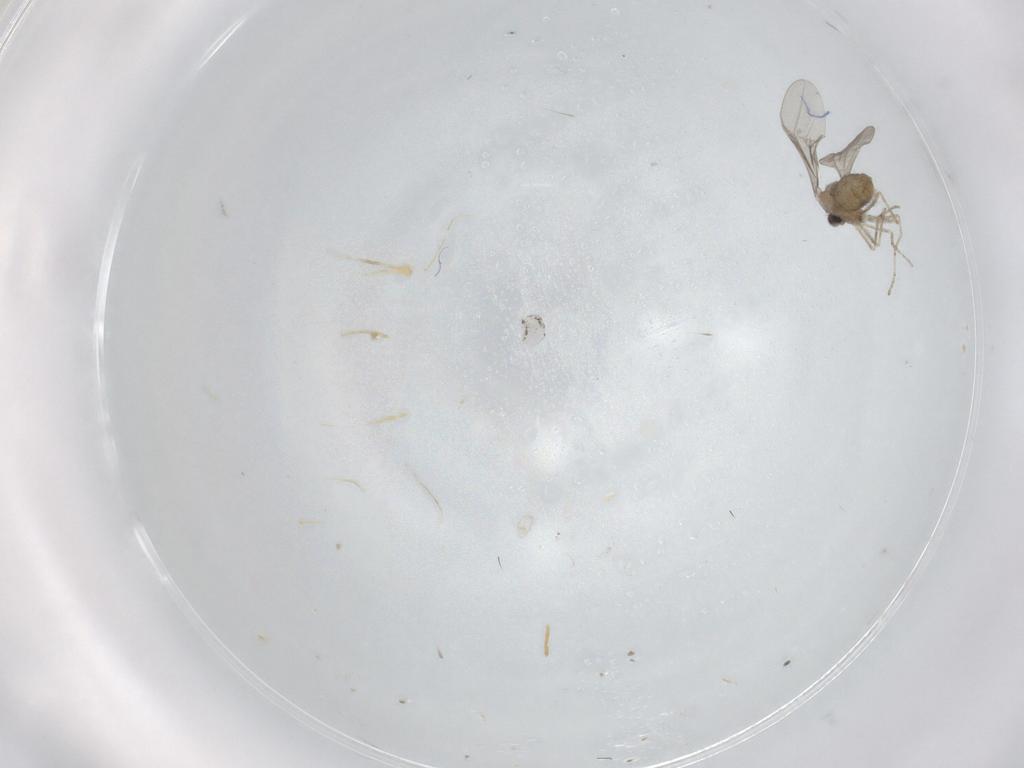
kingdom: Animalia
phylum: Arthropoda
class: Insecta
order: Diptera
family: Cecidomyiidae
